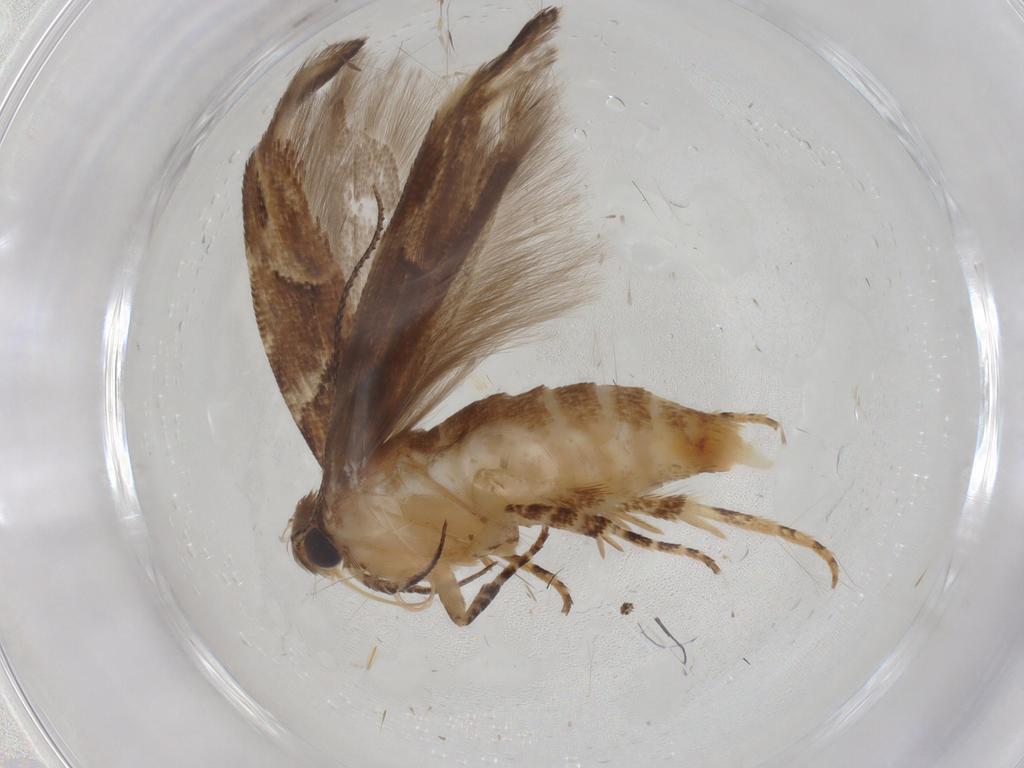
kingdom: Animalia
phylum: Arthropoda
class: Insecta
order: Lepidoptera
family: Gelechiidae
